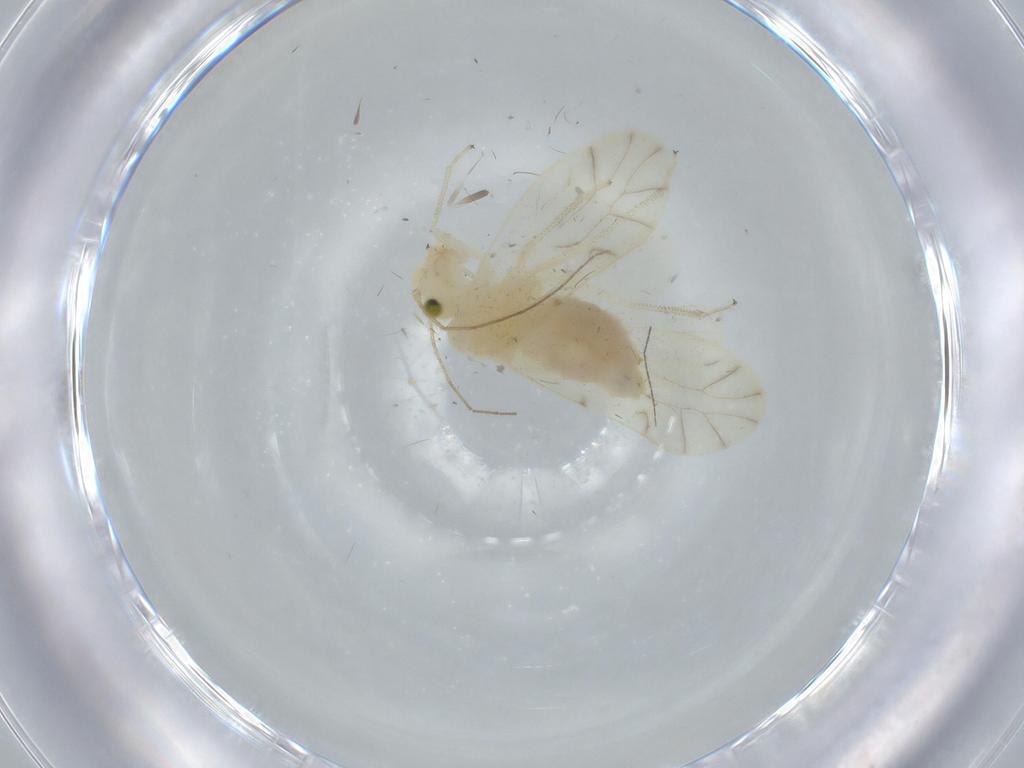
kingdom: Animalia
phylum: Arthropoda
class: Insecta
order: Psocodea
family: Caeciliusidae
